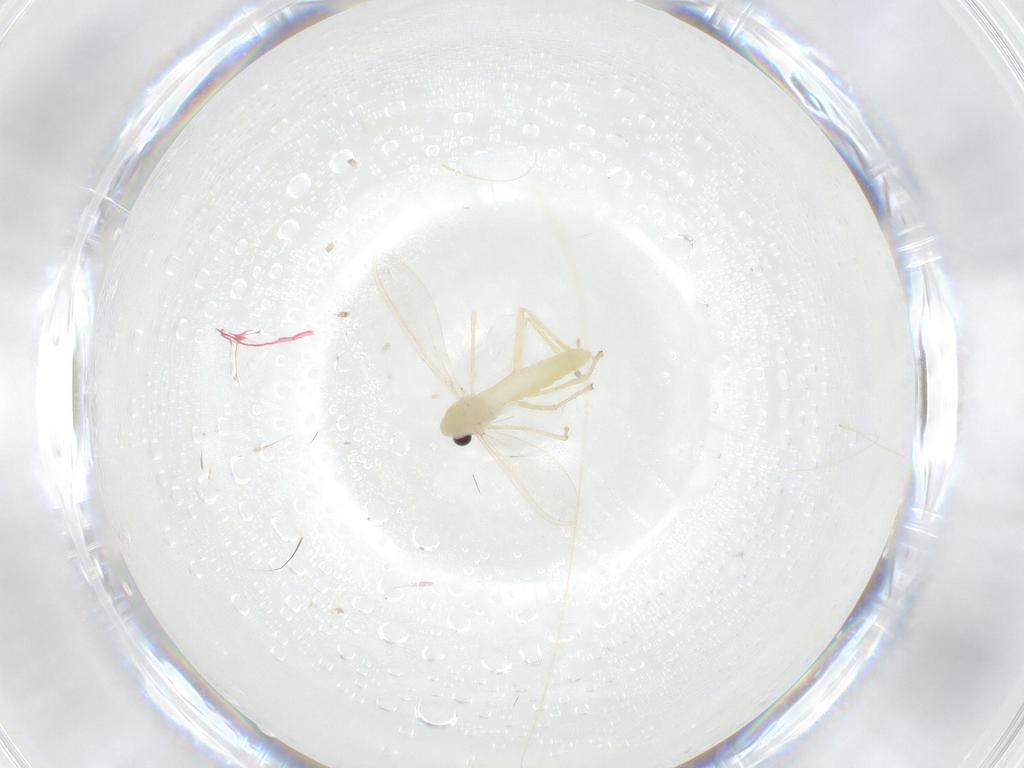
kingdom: Animalia
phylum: Arthropoda
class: Insecta
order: Diptera
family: Chironomidae
